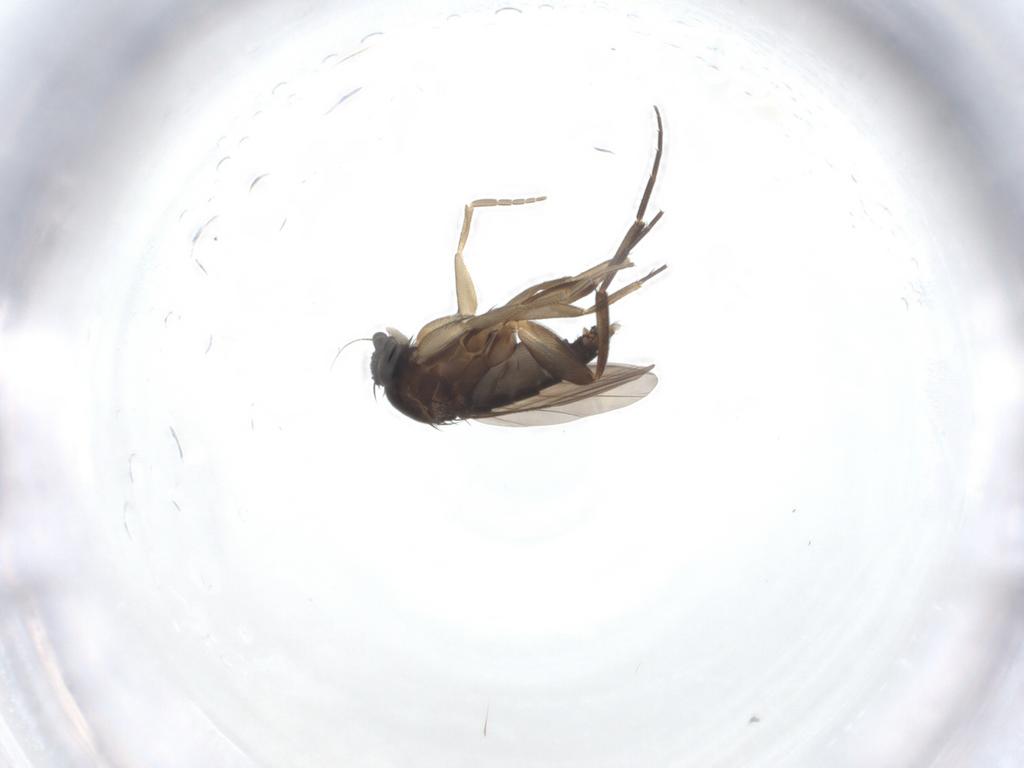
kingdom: Animalia
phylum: Arthropoda
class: Insecta
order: Diptera
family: Phoridae
